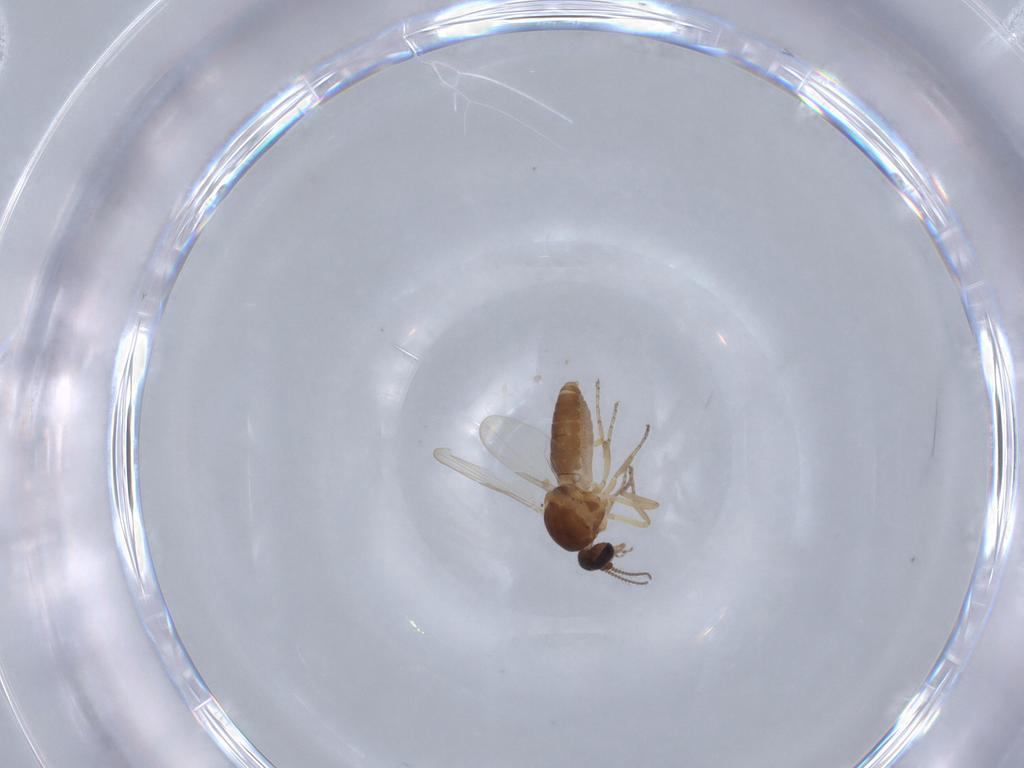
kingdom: Animalia
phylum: Arthropoda
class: Insecta
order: Diptera
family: Ceratopogonidae
